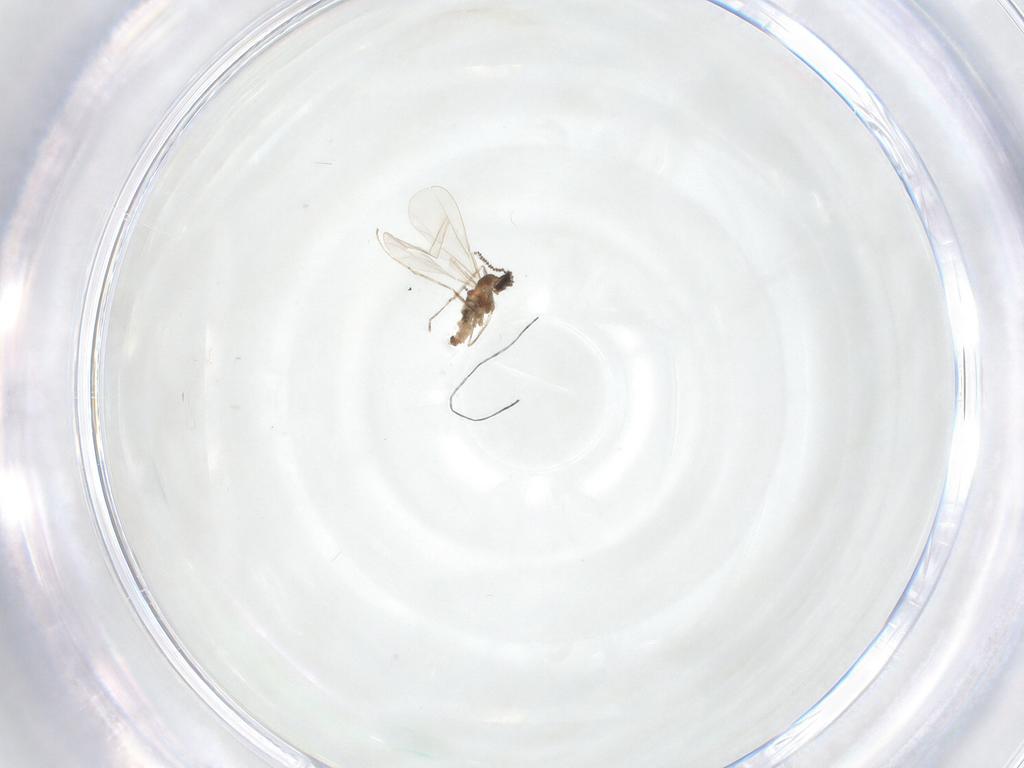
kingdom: Animalia
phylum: Arthropoda
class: Insecta
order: Diptera
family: Cecidomyiidae
